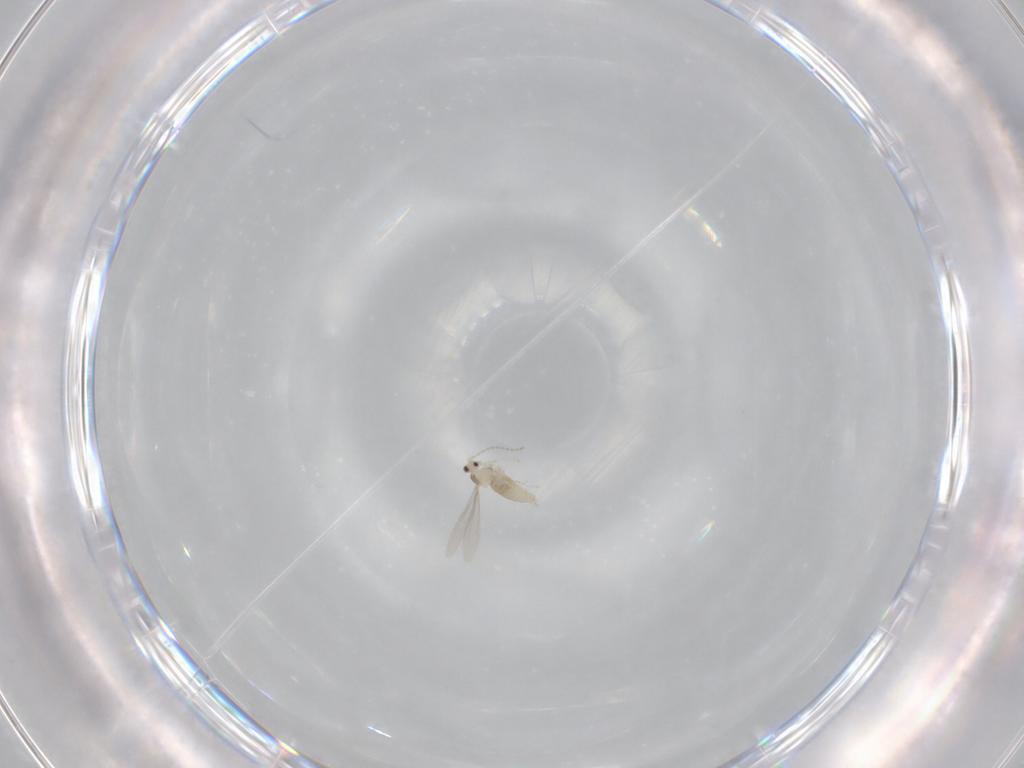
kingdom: Animalia
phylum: Arthropoda
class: Insecta
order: Diptera
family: Cecidomyiidae
